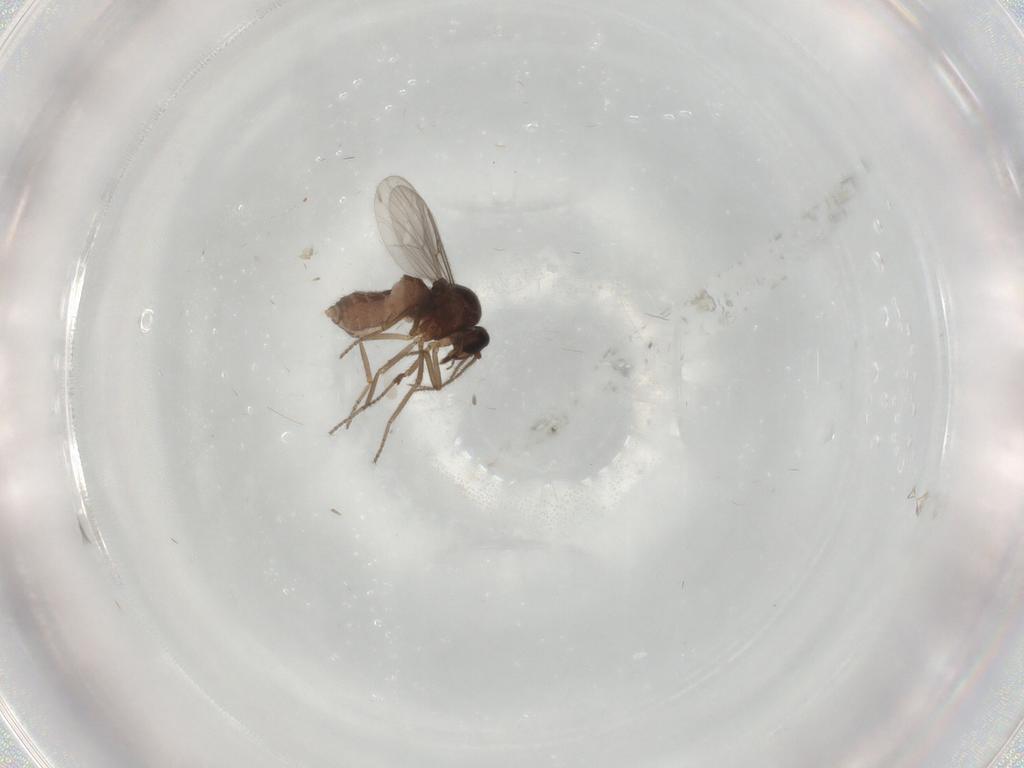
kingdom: Animalia
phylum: Arthropoda
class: Insecta
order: Diptera
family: Ceratopogonidae
